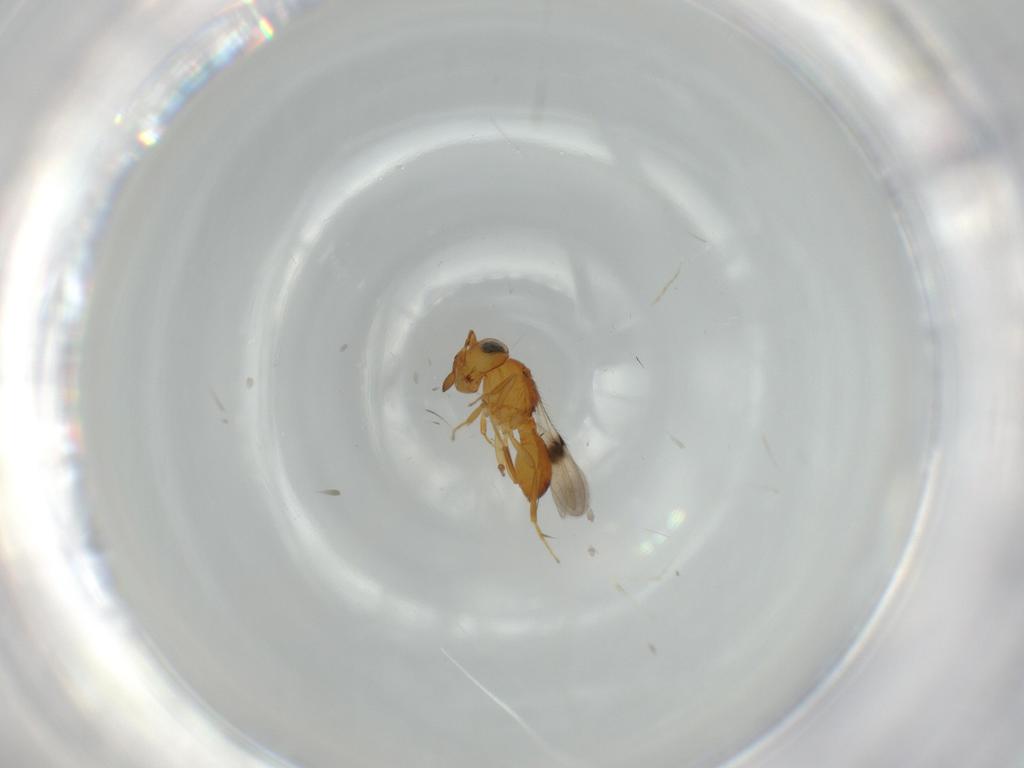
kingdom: Animalia
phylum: Arthropoda
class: Insecta
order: Hymenoptera
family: Scelionidae
